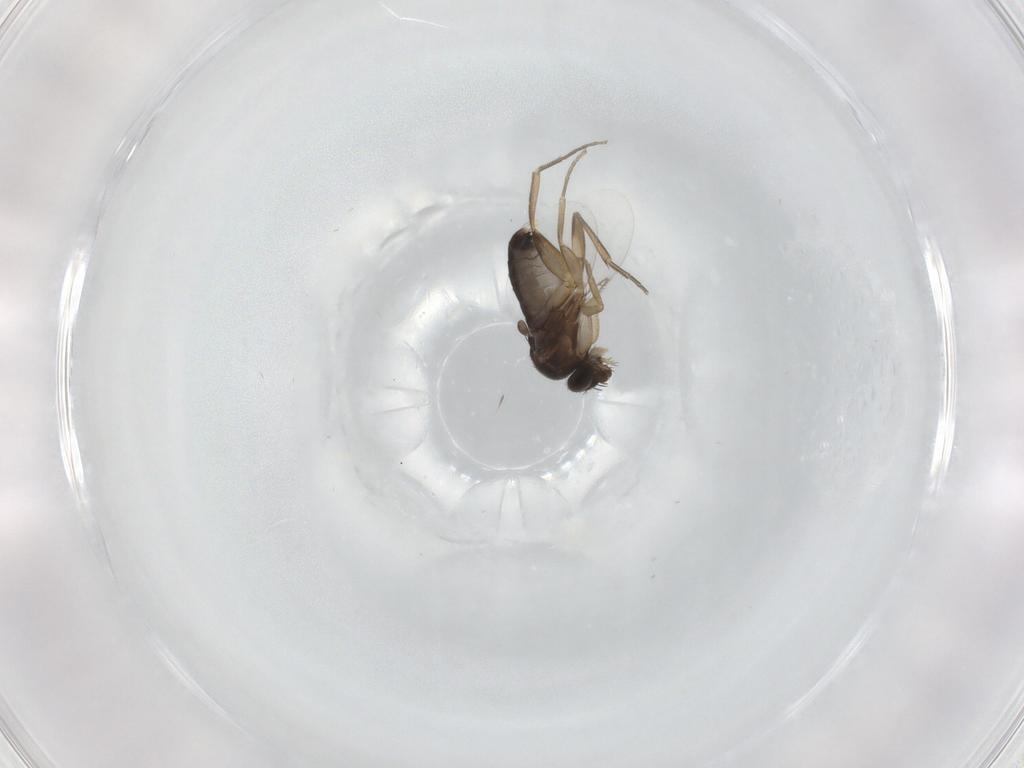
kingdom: Animalia
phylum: Arthropoda
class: Insecta
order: Diptera
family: Phoridae
